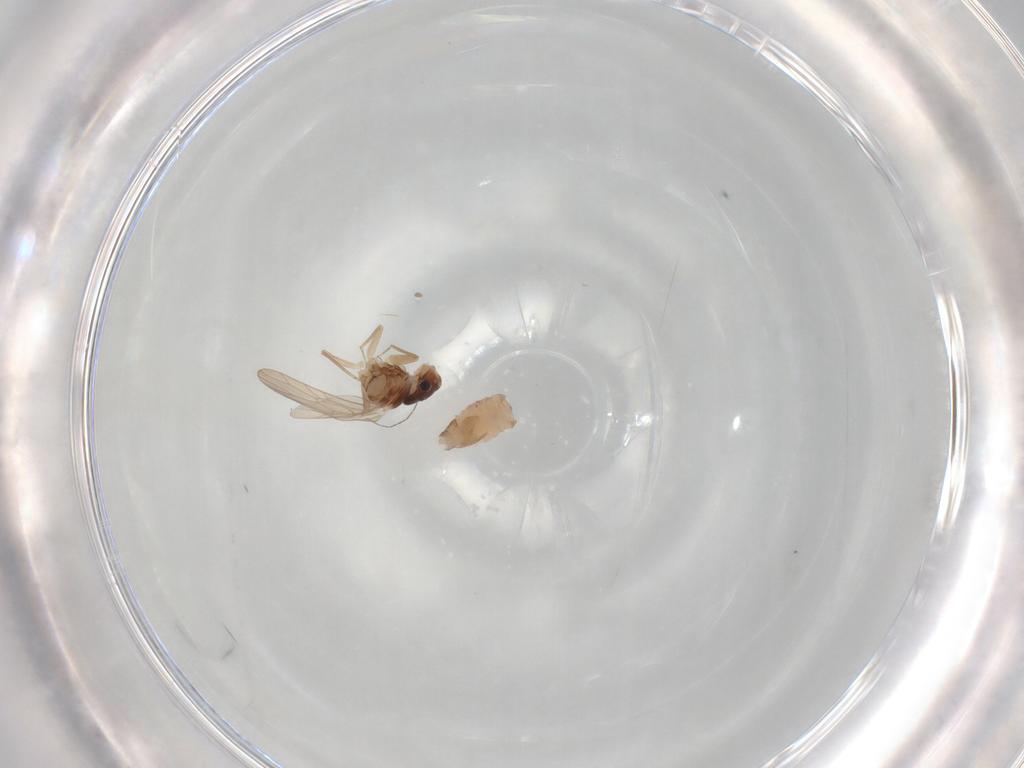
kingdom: Animalia
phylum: Arthropoda
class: Insecta
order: Psocodea
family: Lepidopsocidae
